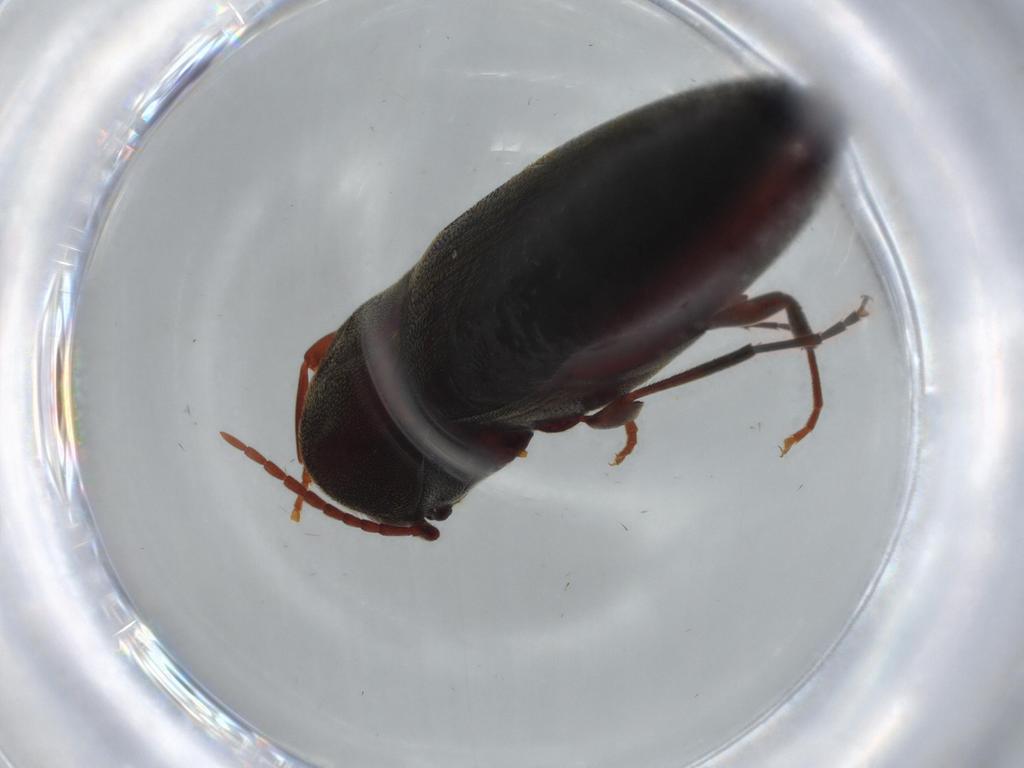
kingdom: Animalia
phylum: Arthropoda
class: Insecta
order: Coleoptera
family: Eucnemidae
